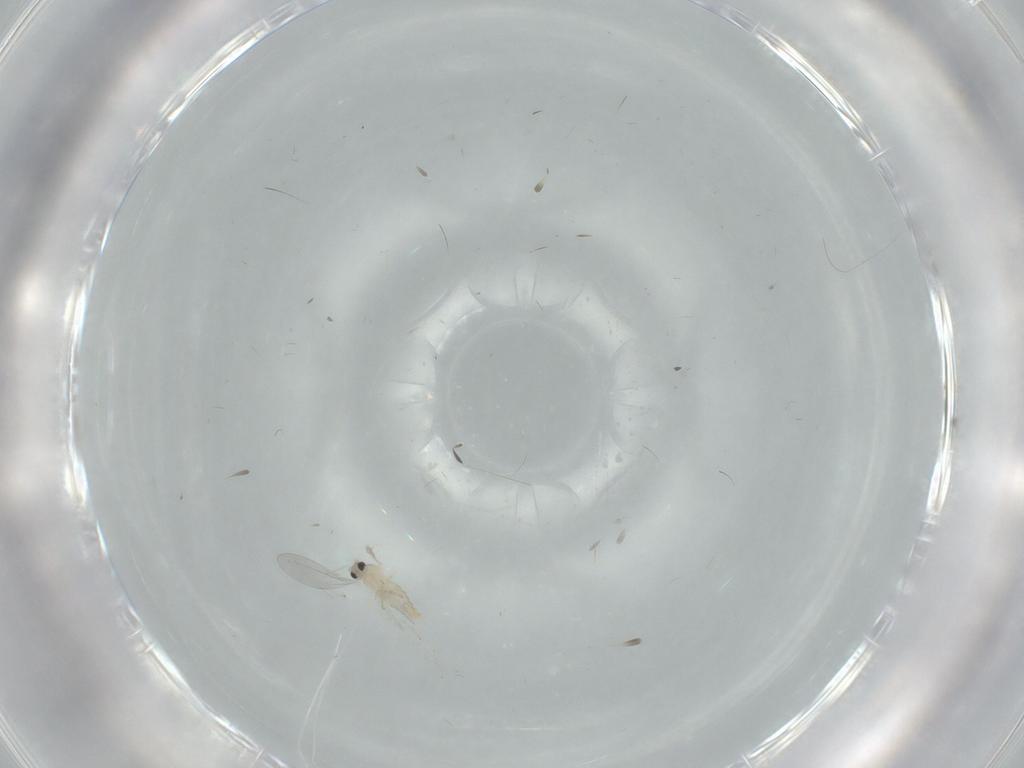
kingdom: Animalia
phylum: Arthropoda
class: Insecta
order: Diptera
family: Cecidomyiidae
